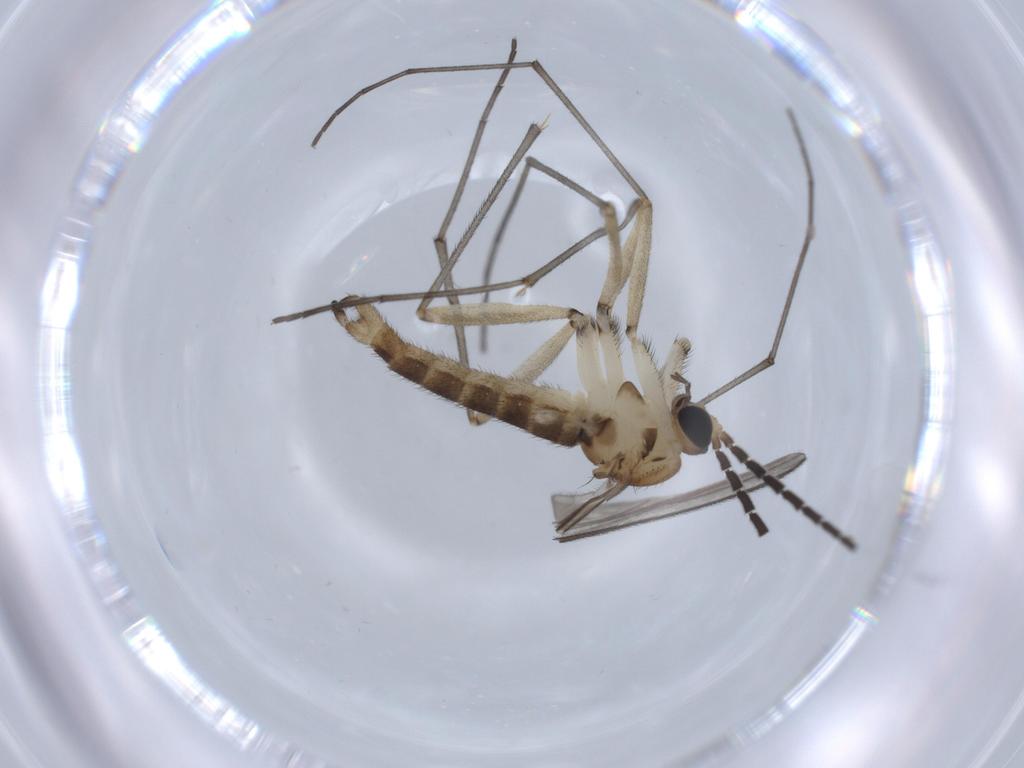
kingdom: Animalia
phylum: Arthropoda
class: Insecta
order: Diptera
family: Sciaridae
